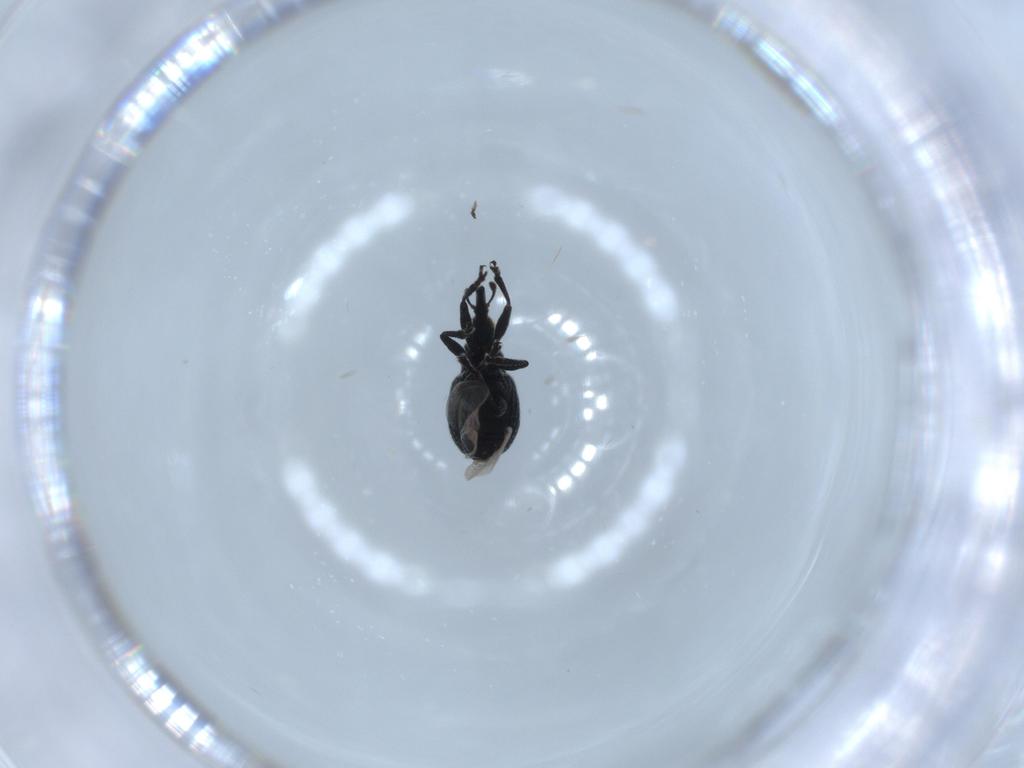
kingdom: Animalia
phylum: Arthropoda
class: Insecta
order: Coleoptera
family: Brentidae
